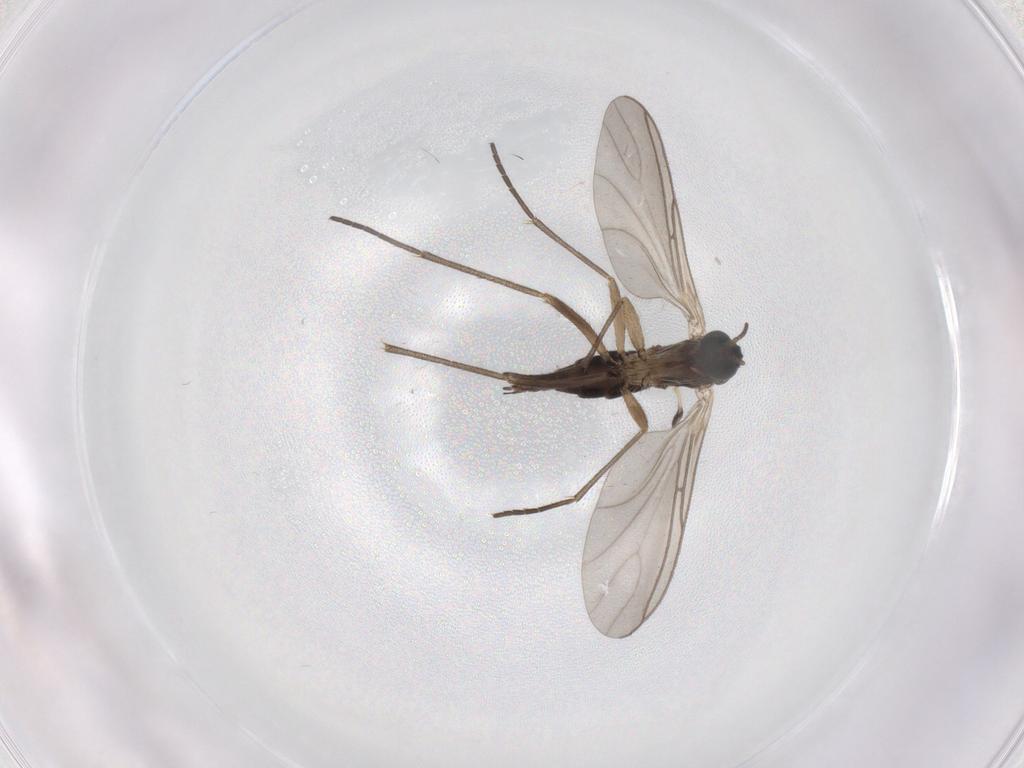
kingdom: Animalia
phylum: Arthropoda
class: Insecta
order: Diptera
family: Sciaridae
